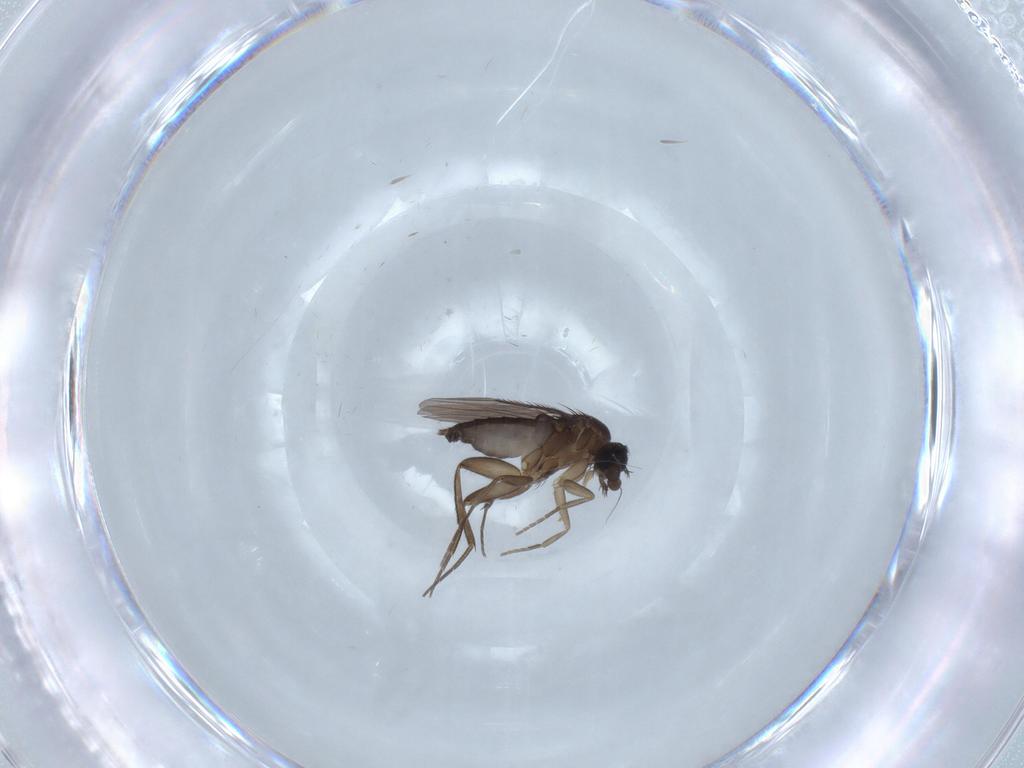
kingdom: Animalia
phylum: Arthropoda
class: Insecta
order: Diptera
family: Phoridae
